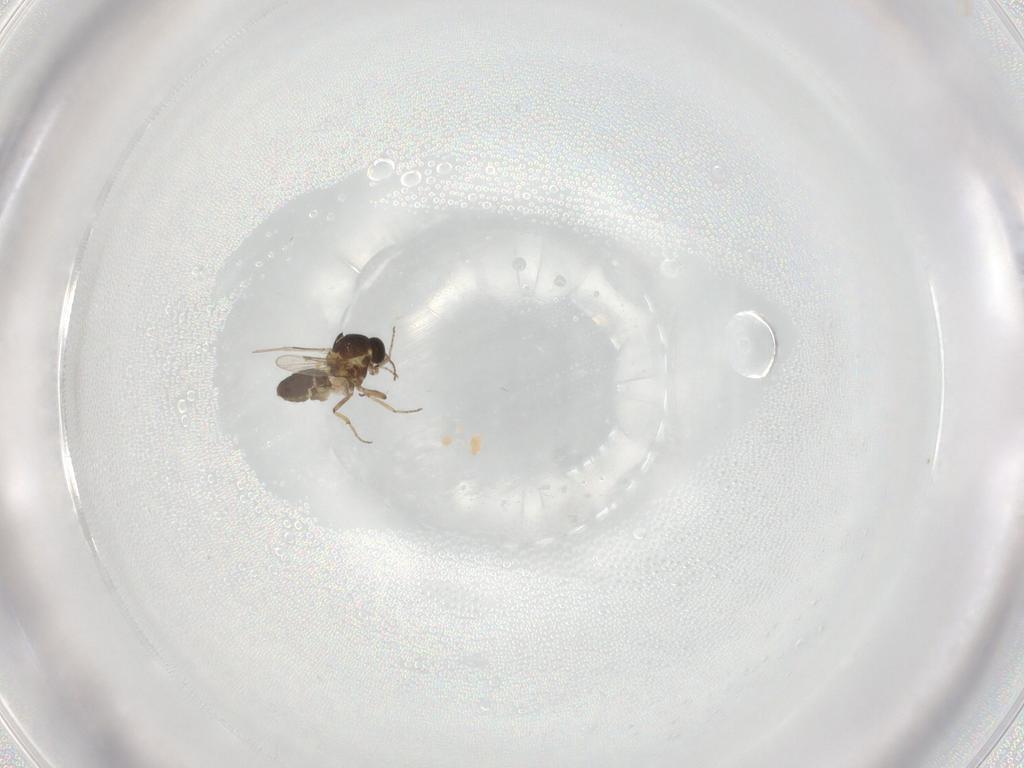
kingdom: Animalia
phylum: Arthropoda
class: Insecta
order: Diptera
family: Ceratopogonidae
